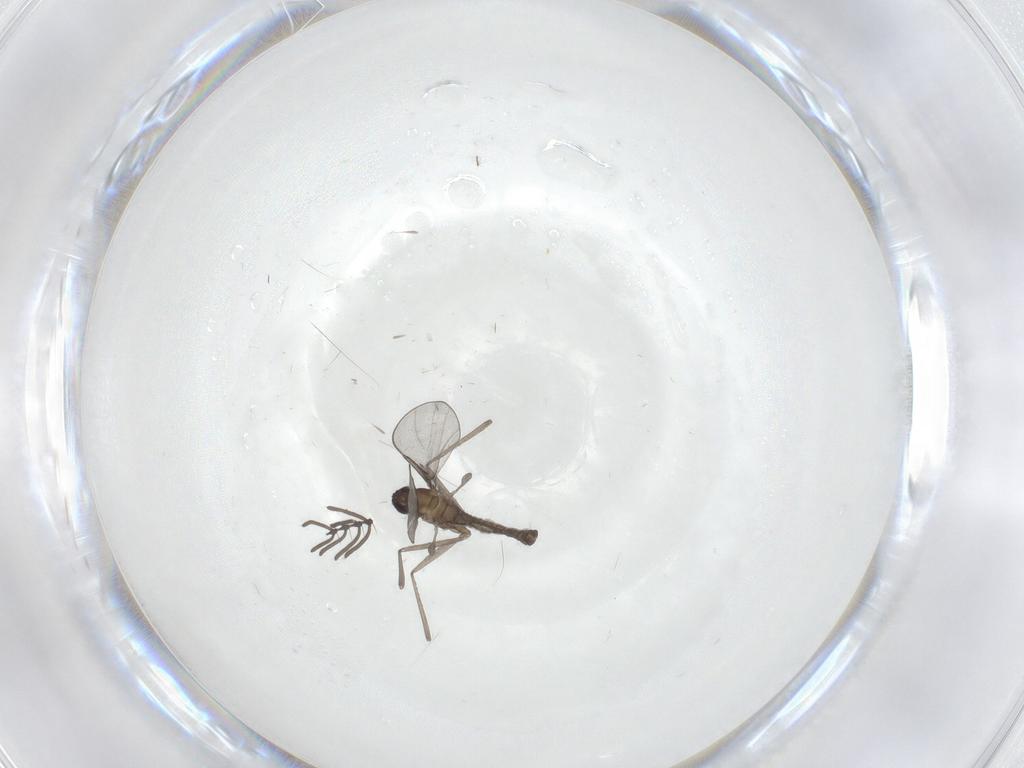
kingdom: Animalia
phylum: Arthropoda
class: Insecta
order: Diptera
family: Cecidomyiidae
